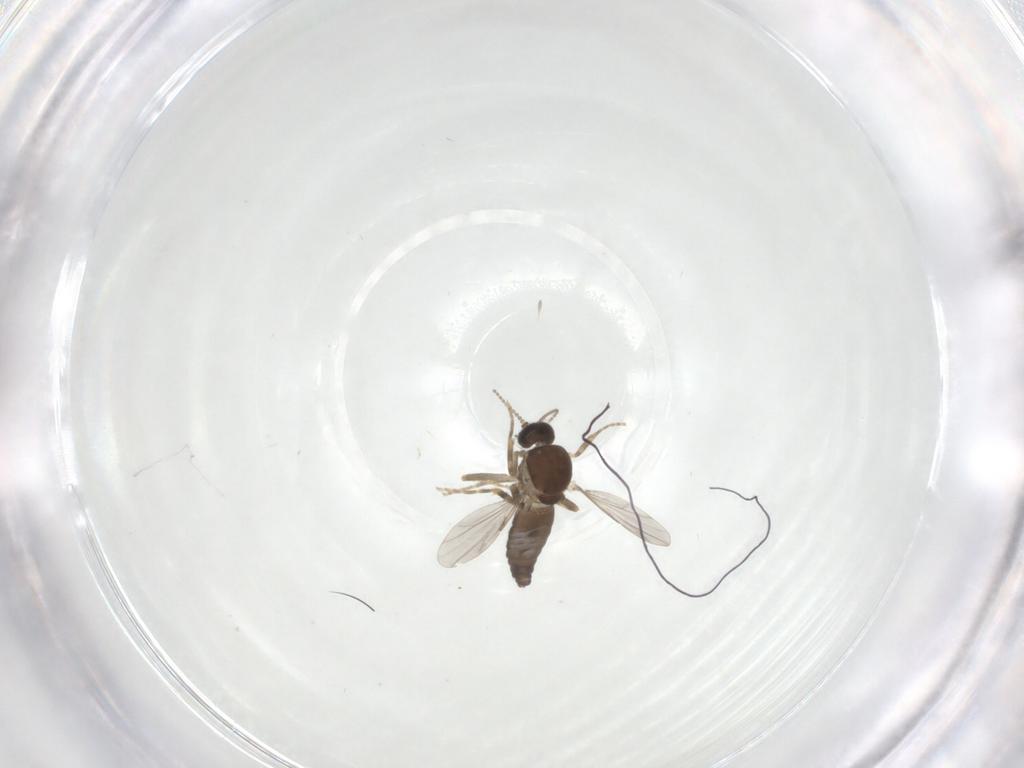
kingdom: Animalia
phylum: Arthropoda
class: Insecta
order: Diptera
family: Ceratopogonidae
